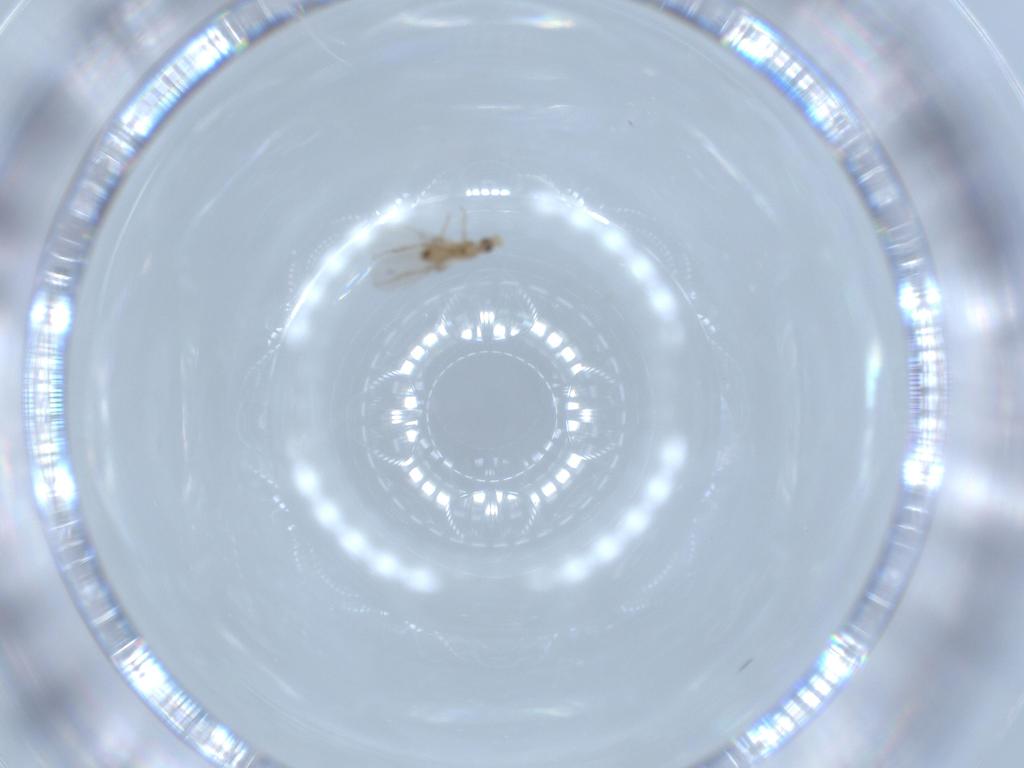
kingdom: Animalia
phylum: Arthropoda
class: Insecta
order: Diptera
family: Phoridae
